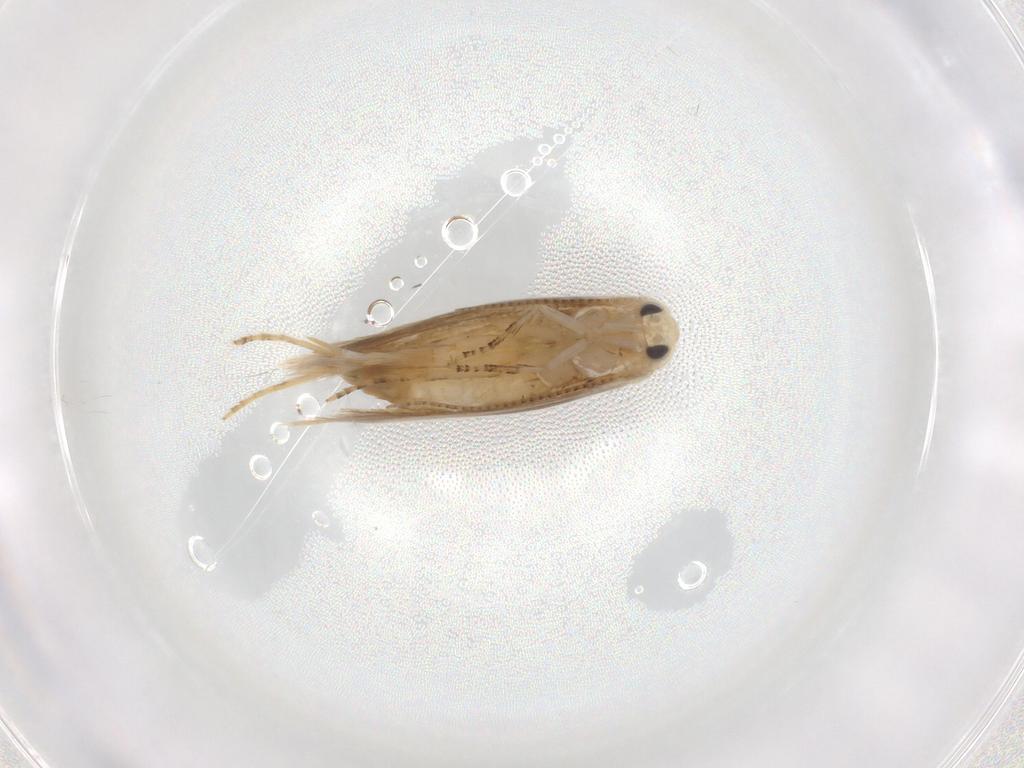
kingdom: Animalia
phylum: Arthropoda
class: Insecta
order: Lepidoptera
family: Bucculatricidae
